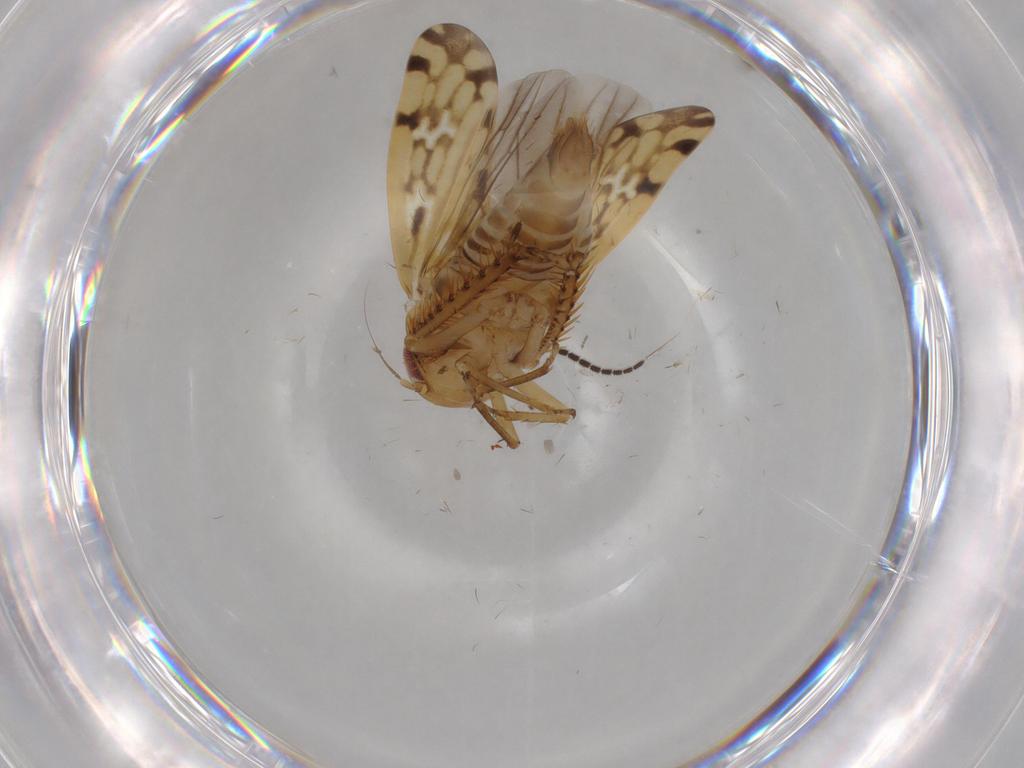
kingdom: Animalia
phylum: Arthropoda
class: Insecta
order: Hemiptera
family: Cicadellidae
